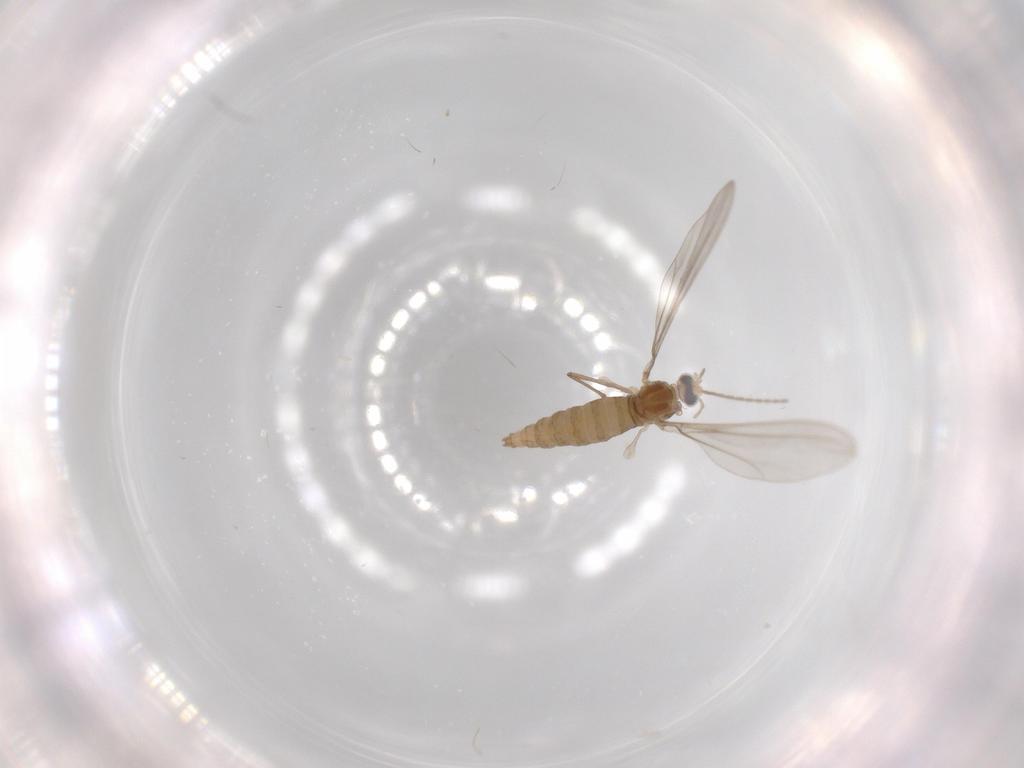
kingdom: Animalia
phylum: Arthropoda
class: Insecta
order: Diptera
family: Cecidomyiidae
